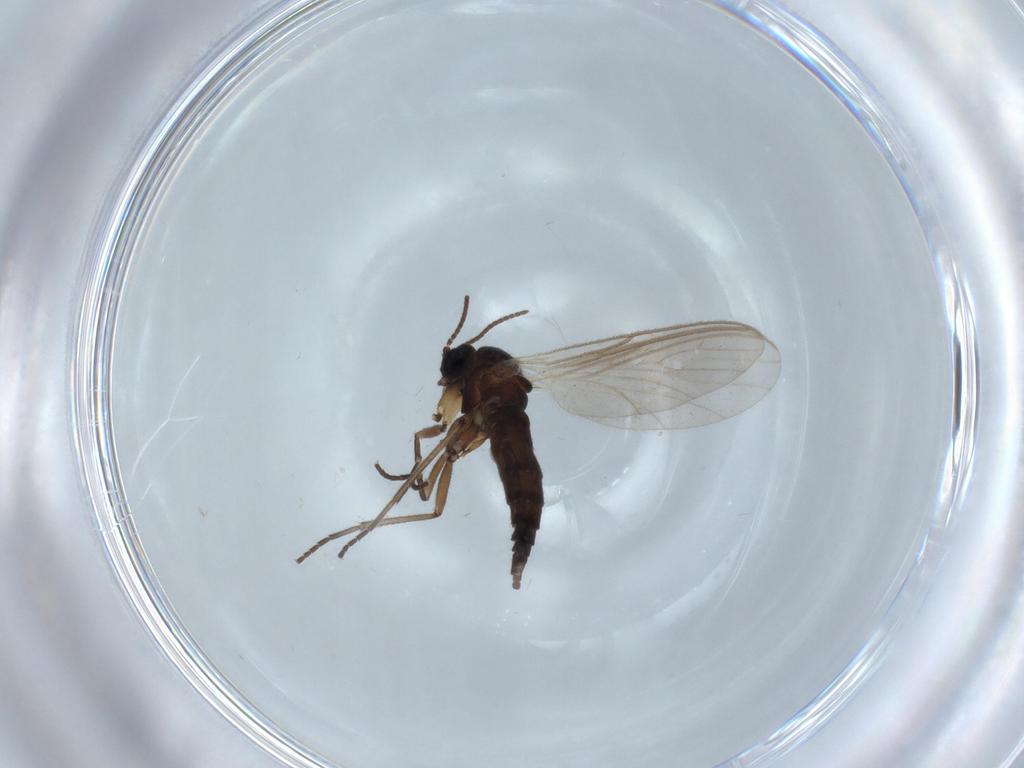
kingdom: Animalia
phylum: Arthropoda
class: Insecta
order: Diptera
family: Sciaridae
